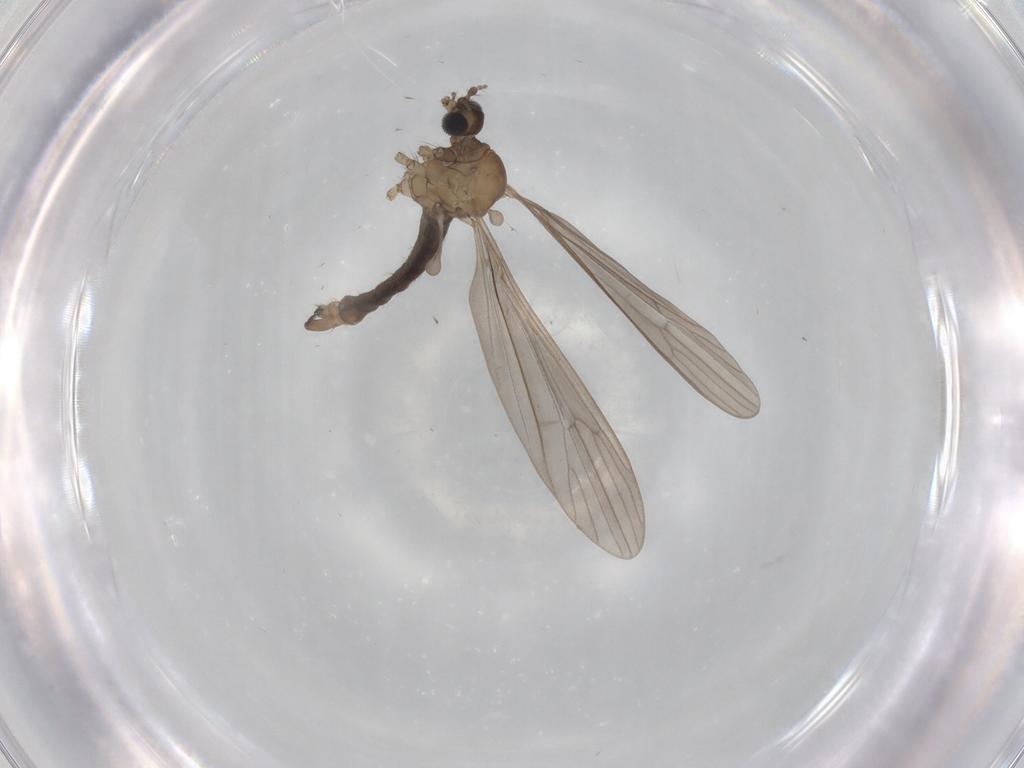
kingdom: Animalia
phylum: Arthropoda
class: Insecta
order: Diptera
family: Limoniidae
